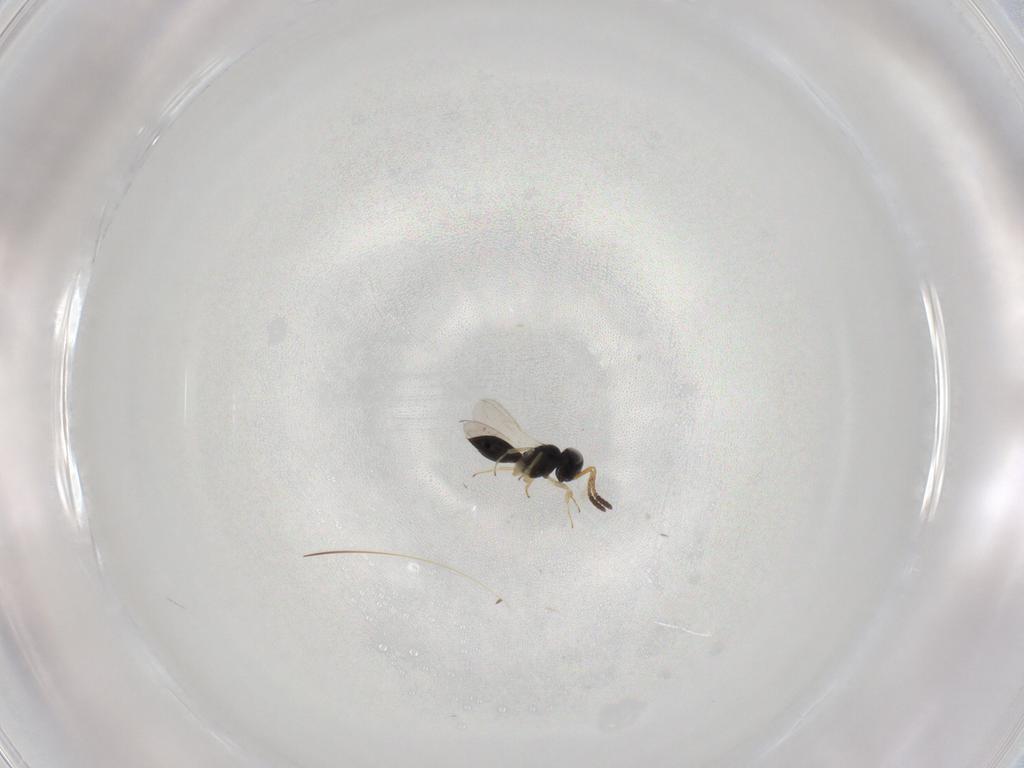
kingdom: Animalia
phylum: Arthropoda
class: Insecta
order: Hymenoptera
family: Scelionidae
